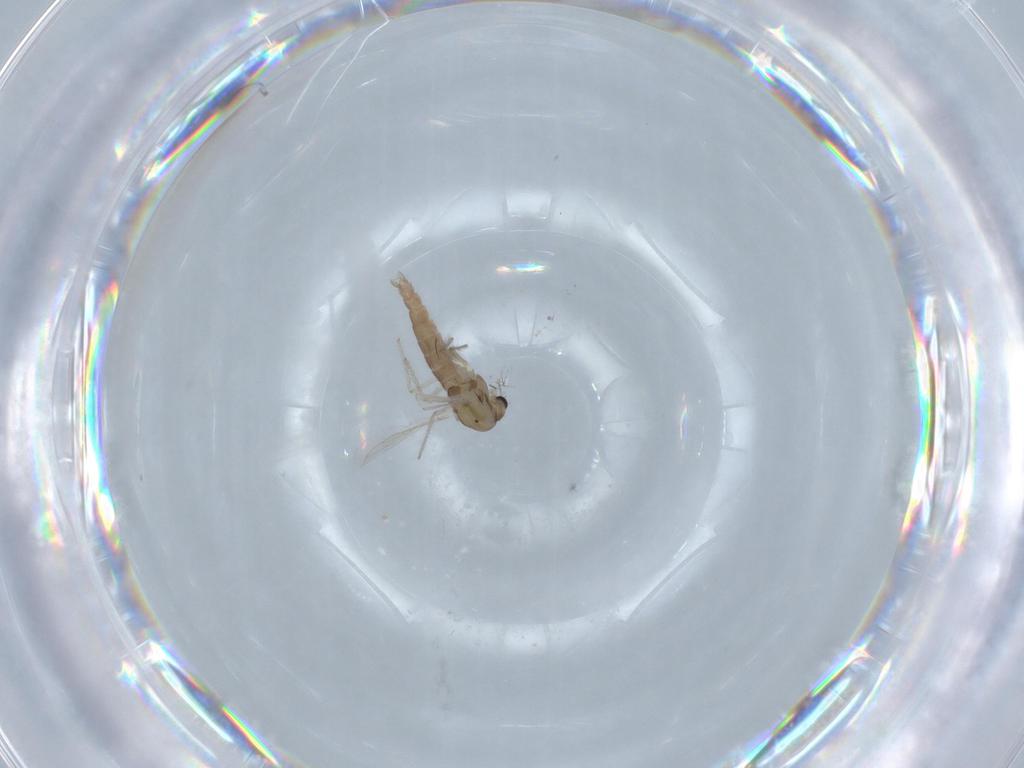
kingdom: Animalia
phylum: Arthropoda
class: Insecta
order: Diptera
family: Chironomidae
